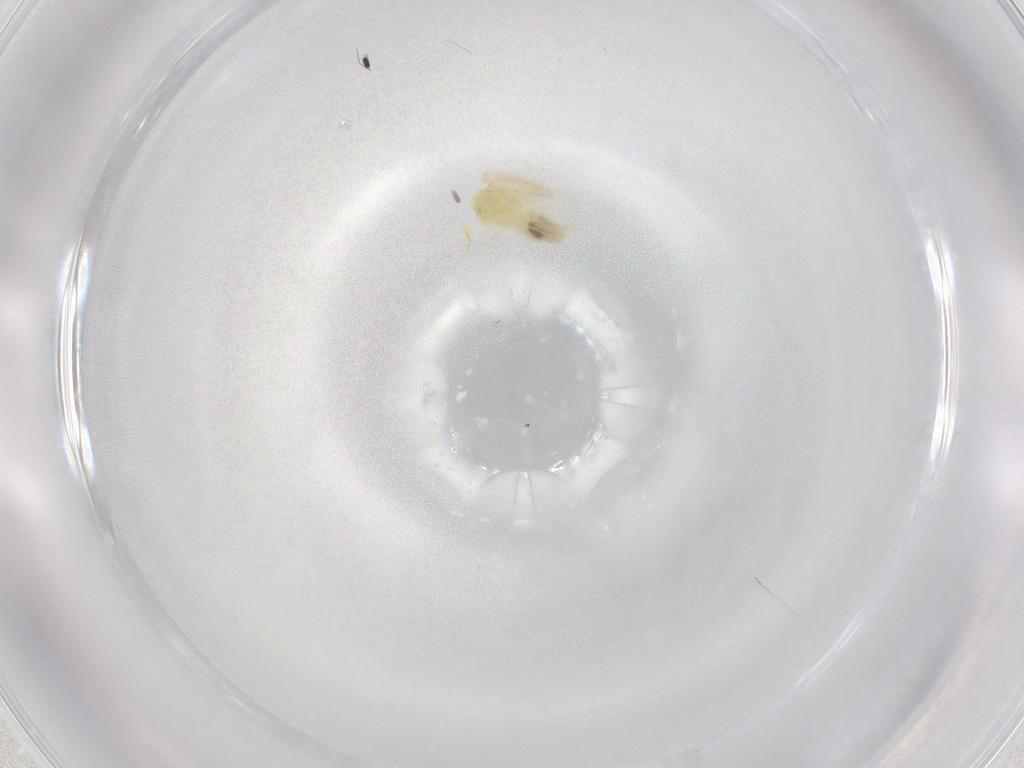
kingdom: Animalia
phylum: Arthropoda
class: Insecta
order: Hemiptera
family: Aleyrodidae
